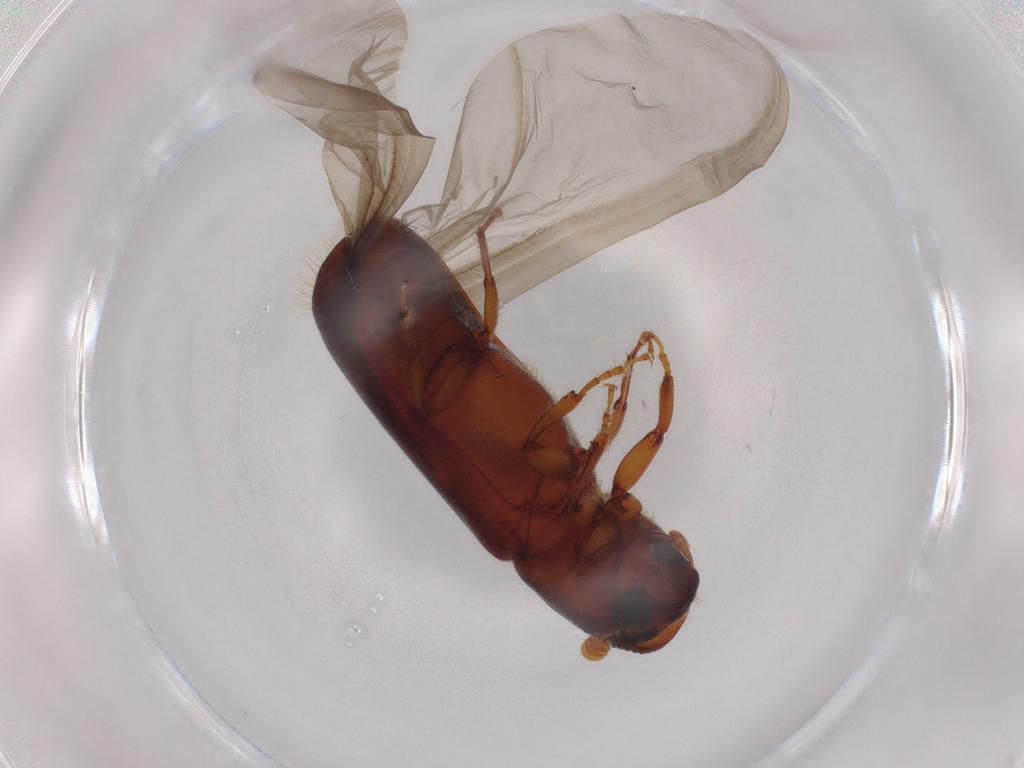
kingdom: Animalia
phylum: Arthropoda
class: Insecta
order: Coleoptera
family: Curculionidae
